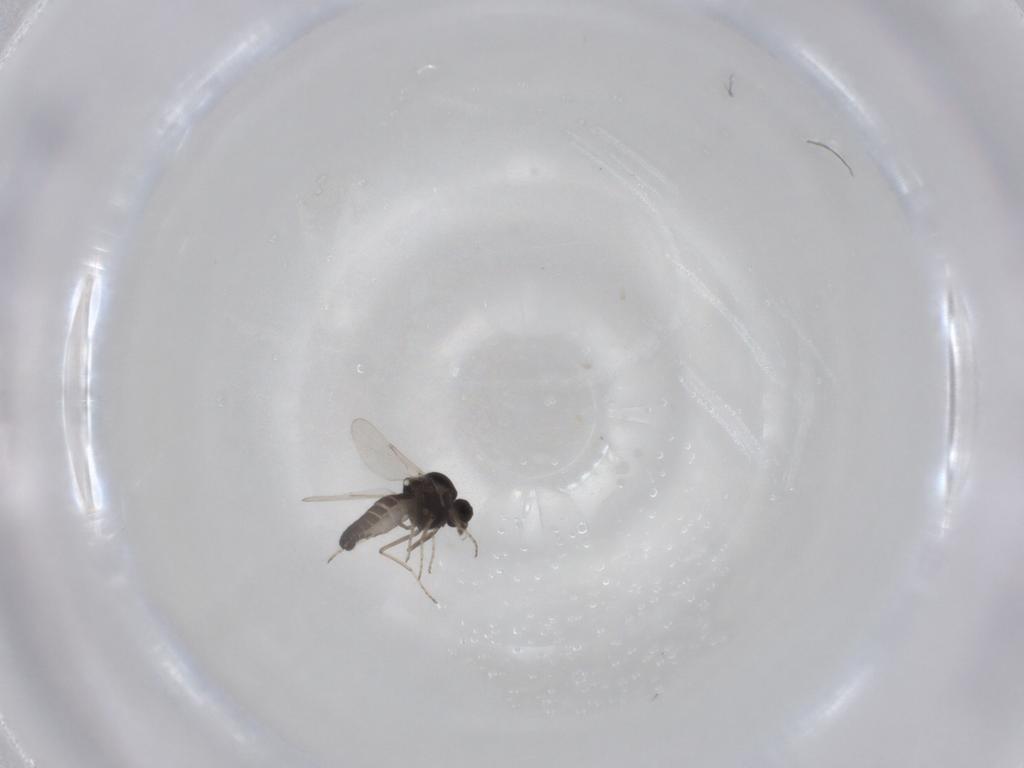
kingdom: Animalia
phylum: Arthropoda
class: Insecta
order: Diptera
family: Ceratopogonidae
